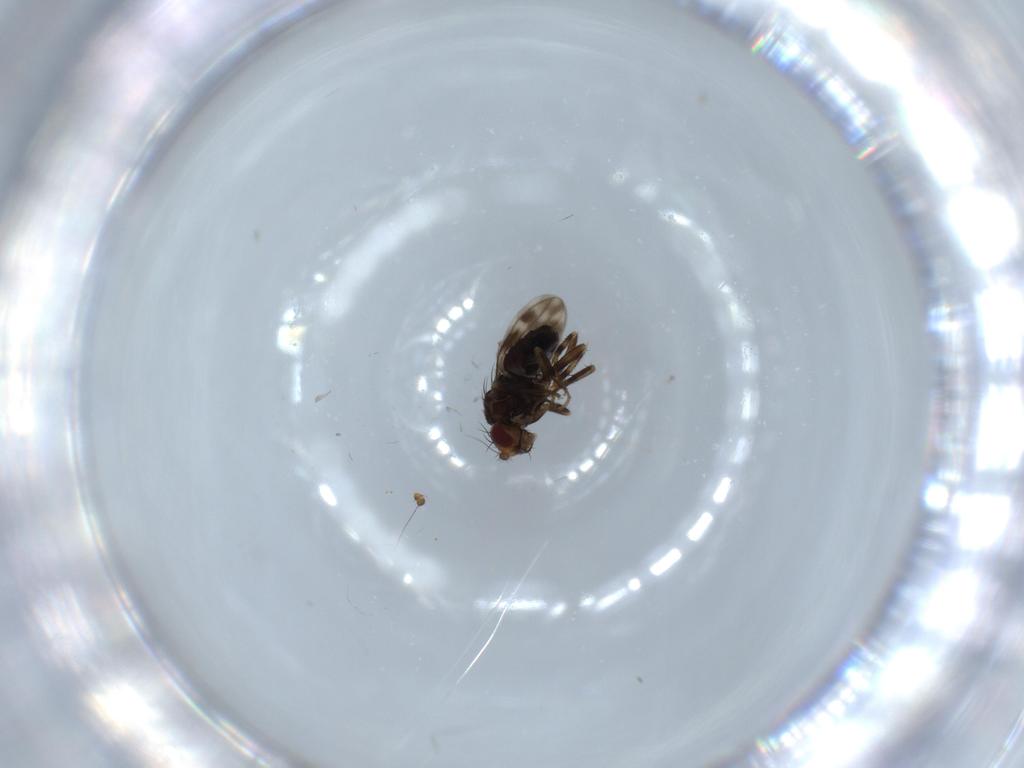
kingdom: Animalia
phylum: Arthropoda
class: Insecta
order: Diptera
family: Sphaeroceridae
